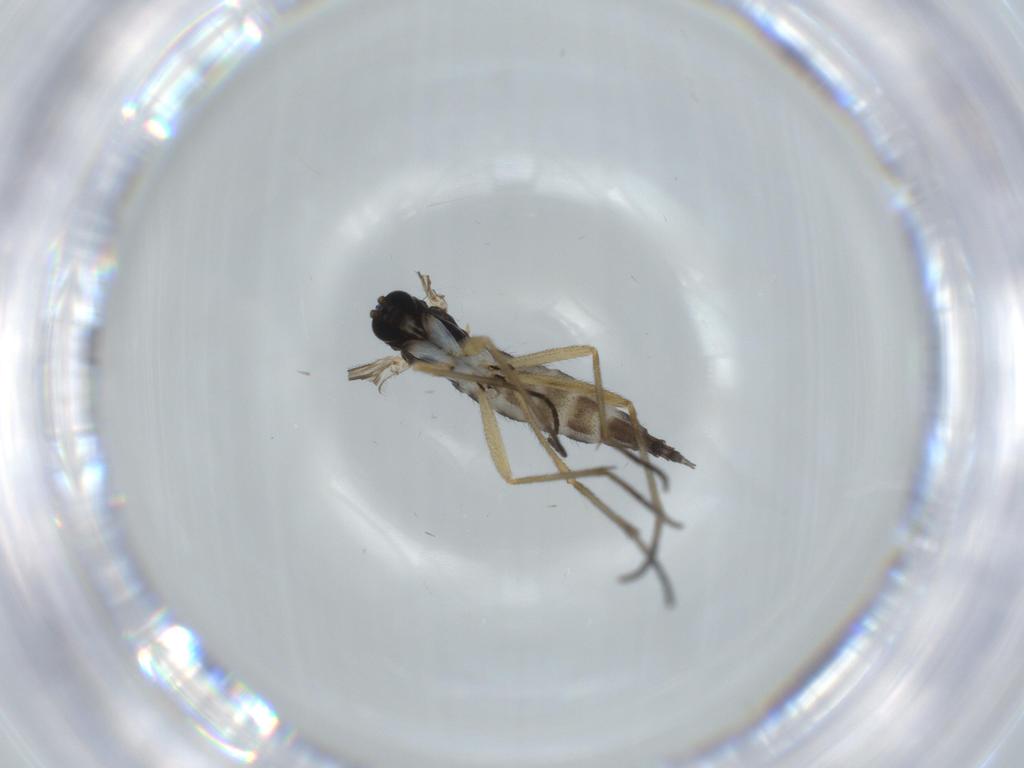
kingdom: Animalia
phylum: Arthropoda
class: Insecta
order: Diptera
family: Sciaridae
